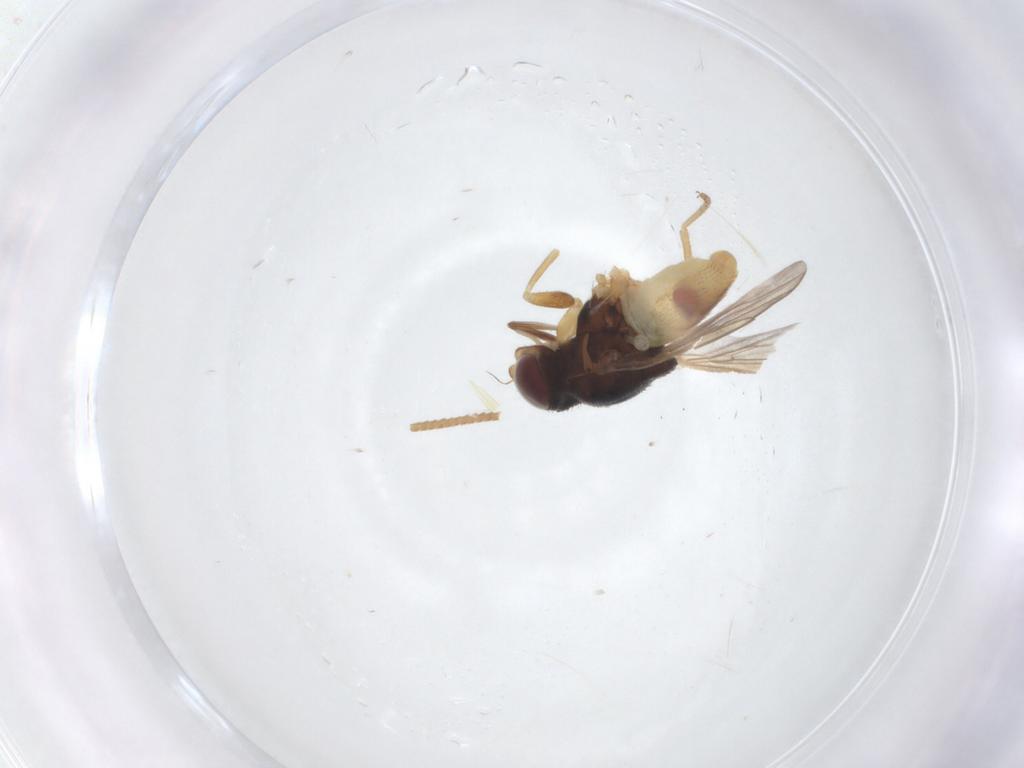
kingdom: Animalia
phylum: Arthropoda
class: Insecta
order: Diptera
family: Chloropidae
